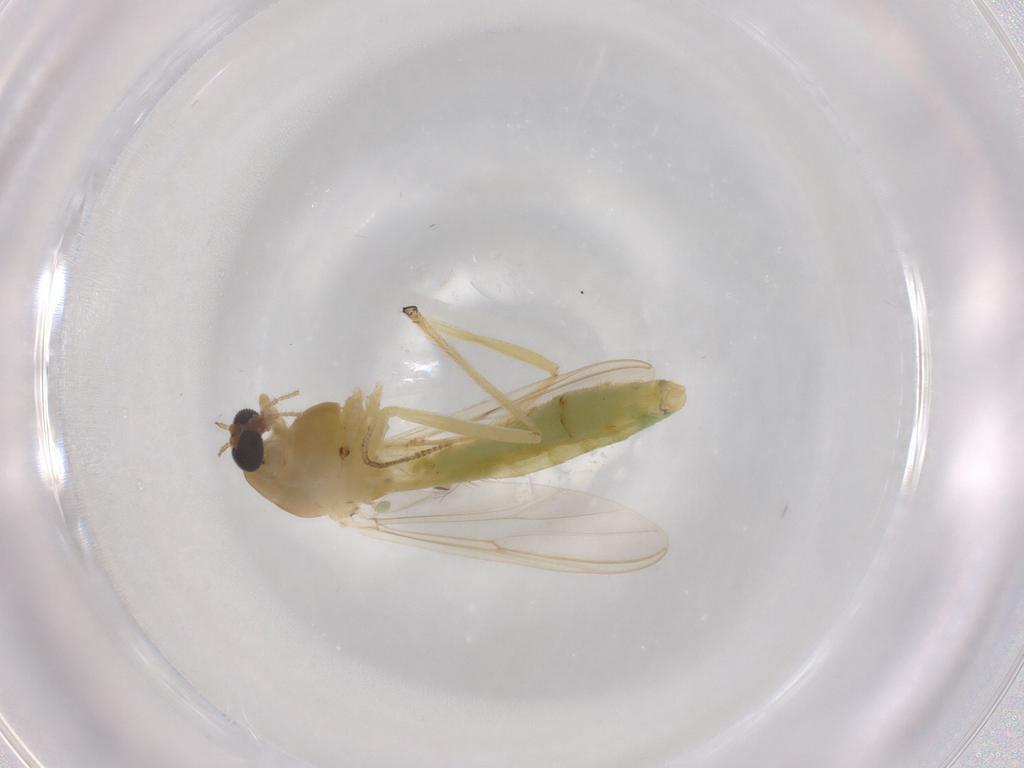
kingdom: Animalia
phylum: Arthropoda
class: Insecta
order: Diptera
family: Chironomidae
